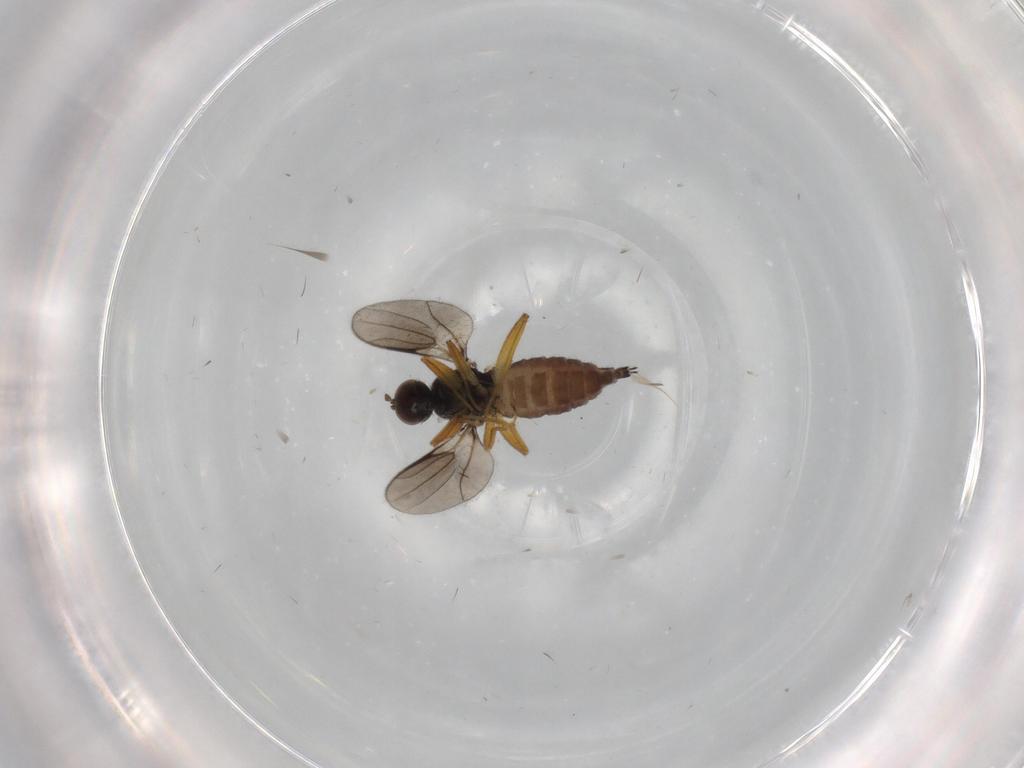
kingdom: Animalia
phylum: Arthropoda
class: Insecta
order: Diptera
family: Hybotidae
